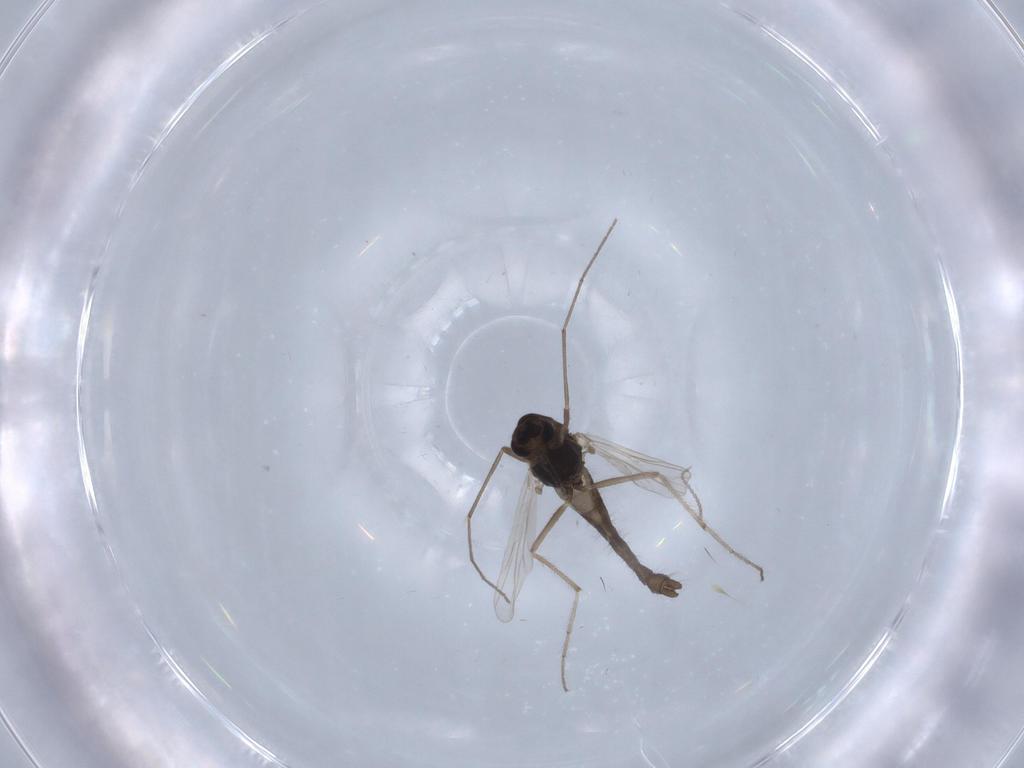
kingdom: Animalia
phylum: Arthropoda
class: Insecta
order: Diptera
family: Chironomidae
